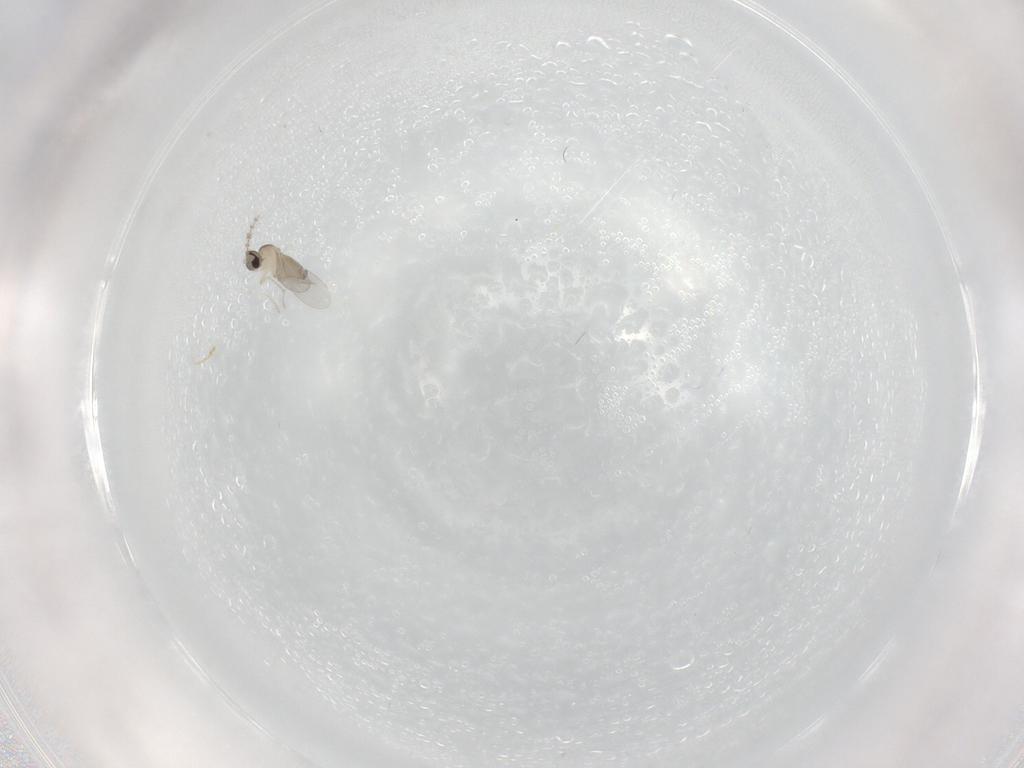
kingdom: Animalia
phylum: Arthropoda
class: Insecta
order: Diptera
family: Cecidomyiidae
